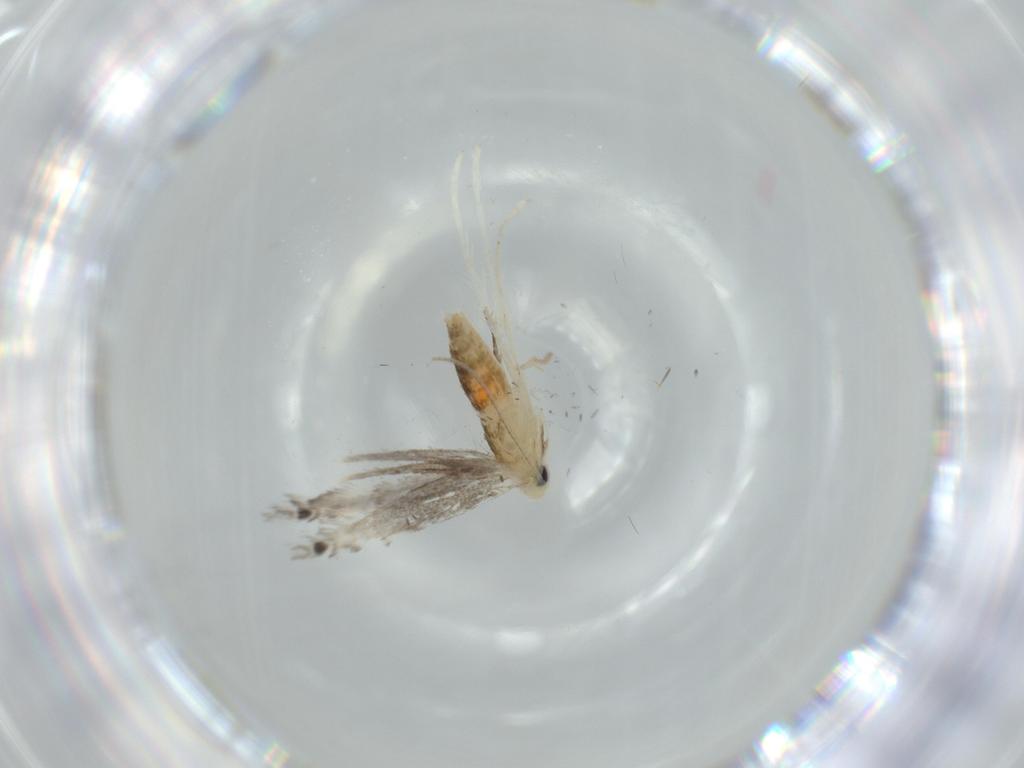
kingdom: Animalia
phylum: Arthropoda
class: Insecta
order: Lepidoptera
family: Gracillariidae
